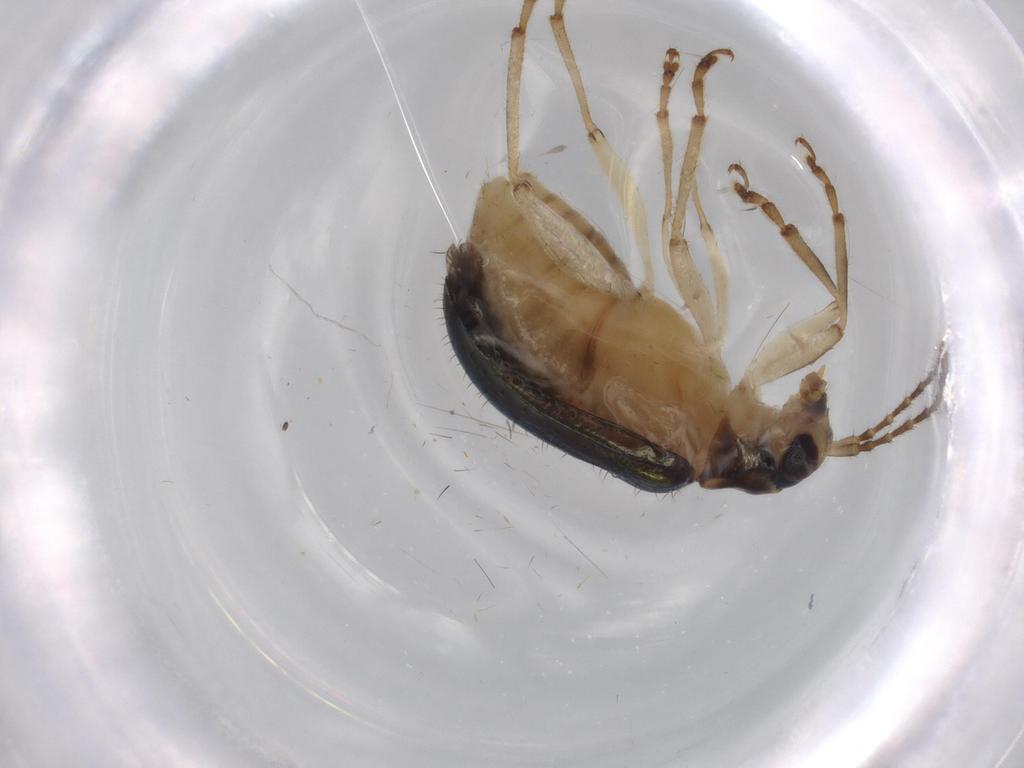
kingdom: Animalia
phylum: Arthropoda
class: Insecta
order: Coleoptera
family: Chrysomelidae
